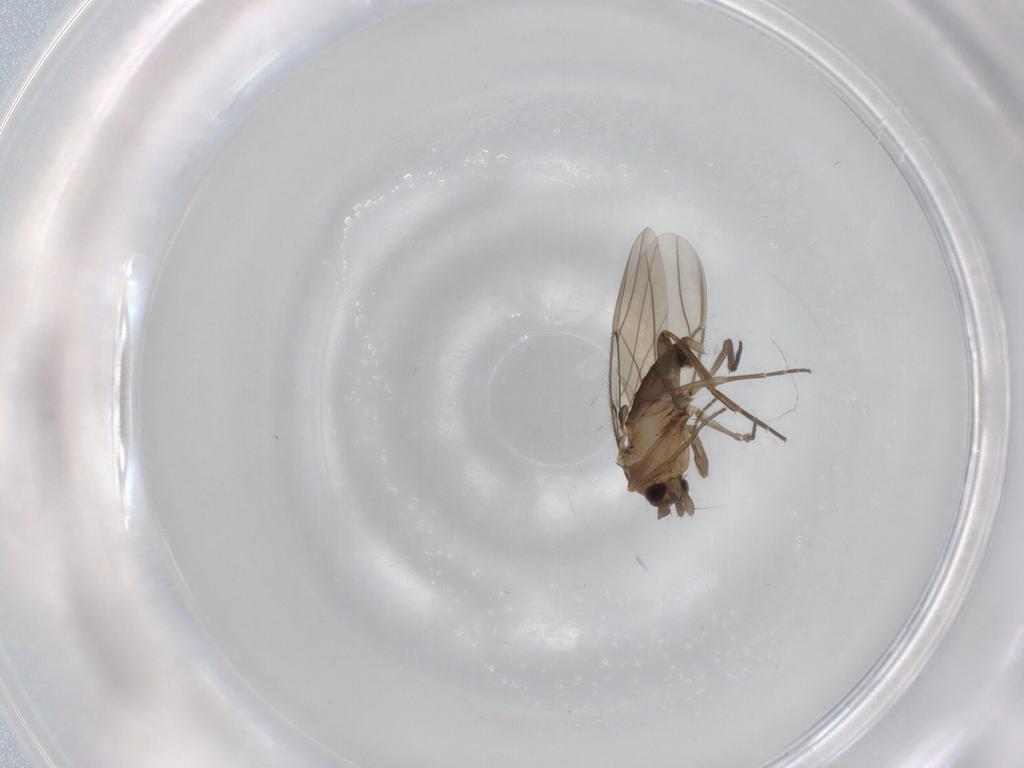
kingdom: Animalia
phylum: Arthropoda
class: Insecta
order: Diptera
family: Phoridae
